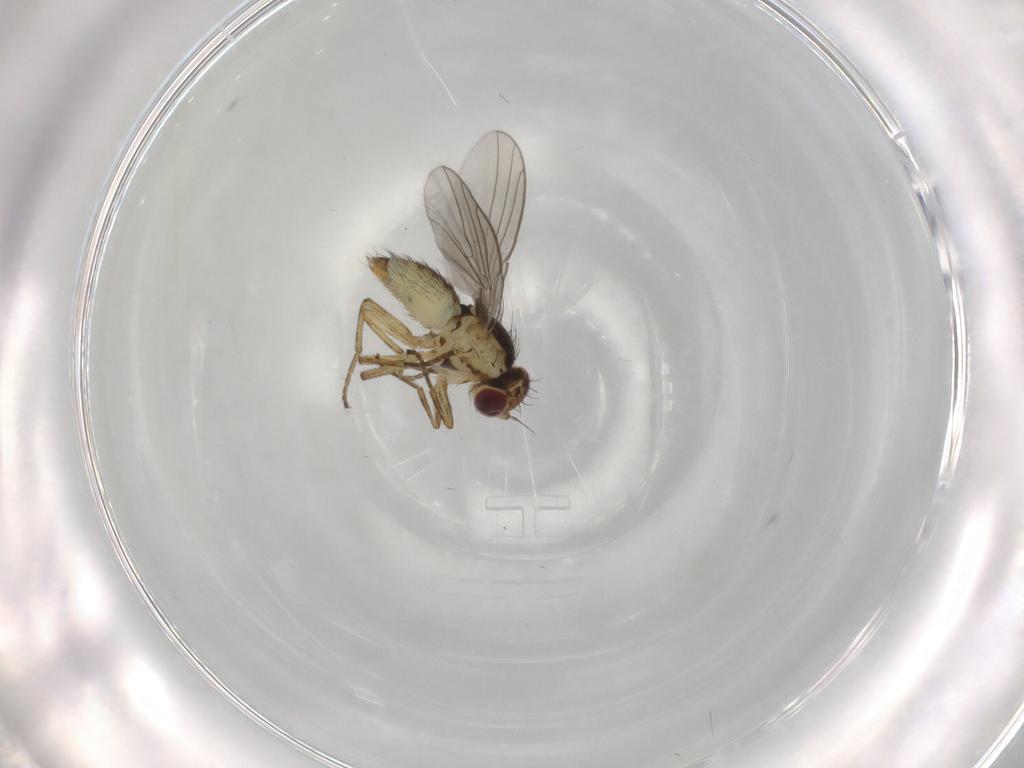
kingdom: Animalia
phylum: Arthropoda
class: Insecta
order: Diptera
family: Agromyzidae
